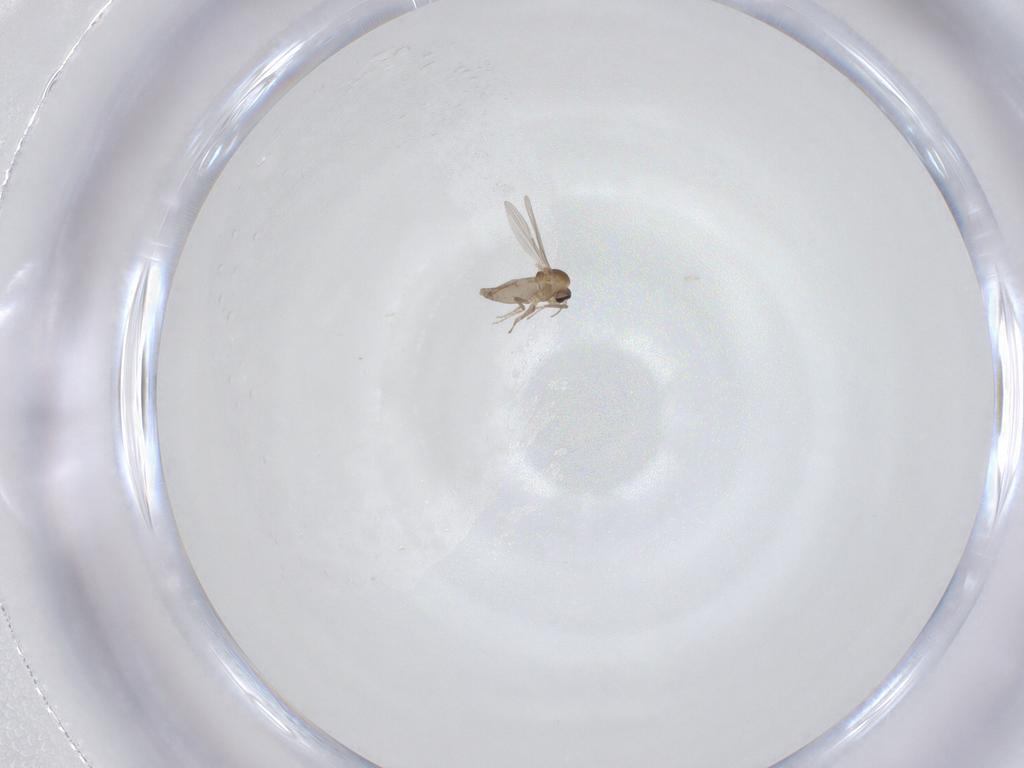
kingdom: Animalia
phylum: Arthropoda
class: Insecta
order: Diptera
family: Ceratopogonidae
